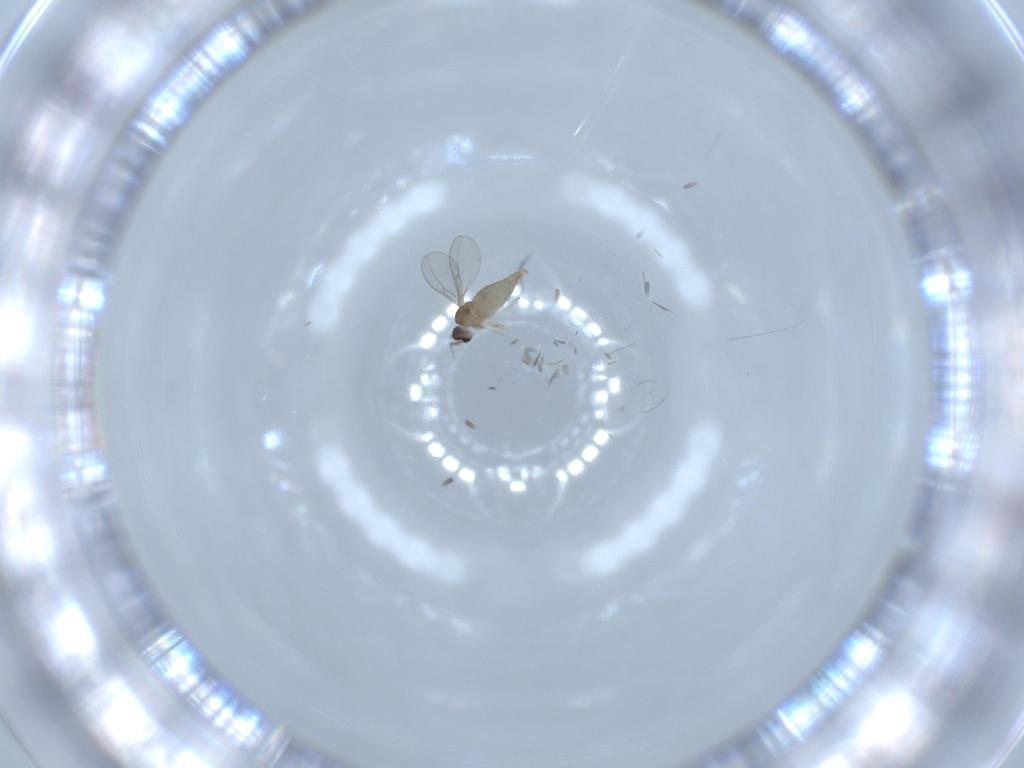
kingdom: Animalia
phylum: Arthropoda
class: Insecta
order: Diptera
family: Cecidomyiidae
